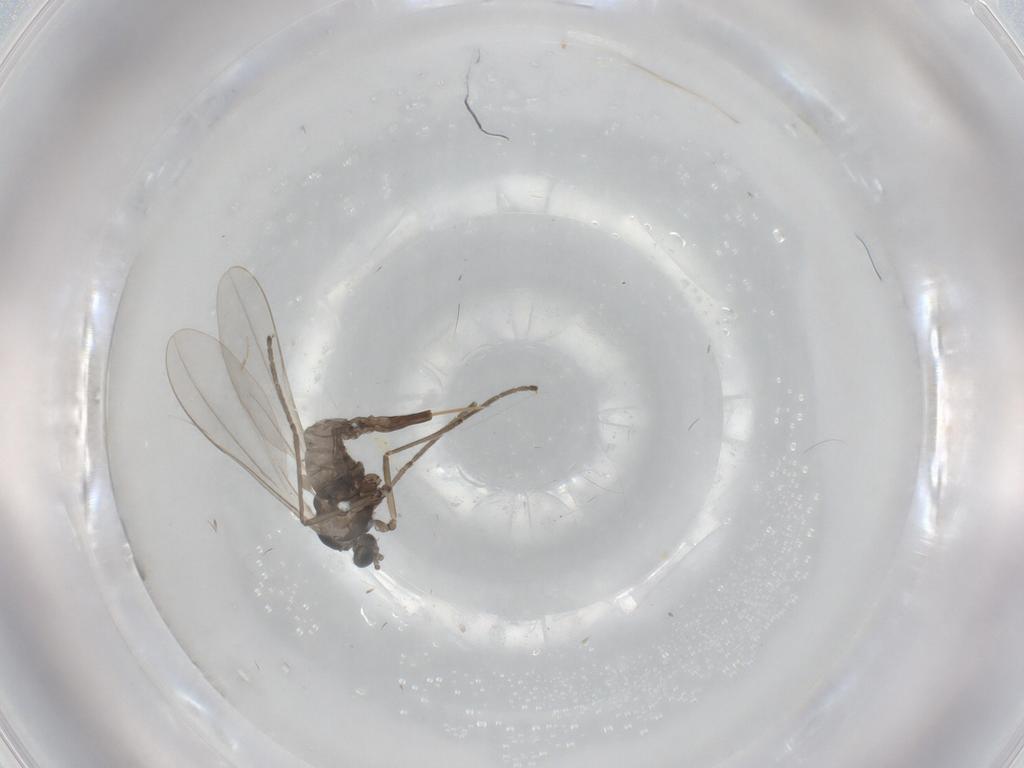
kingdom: Animalia
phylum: Arthropoda
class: Insecta
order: Diptera
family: Cecidomyiidae
